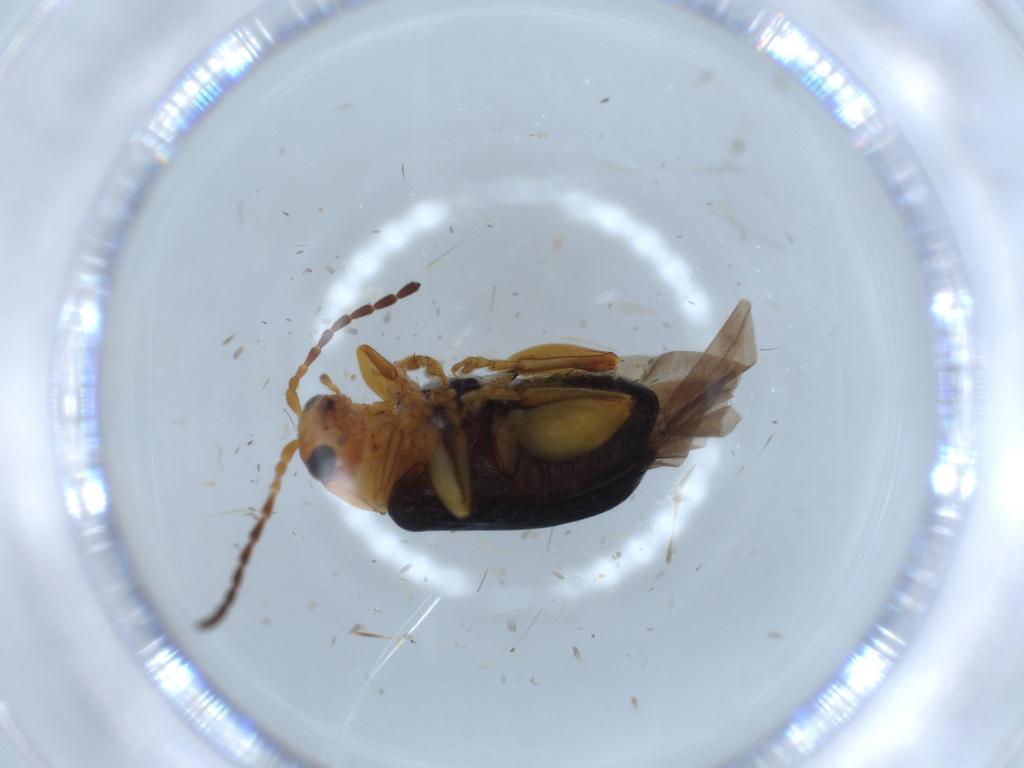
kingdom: Animalia
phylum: Arthropoda
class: Insecta
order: Coleoptera
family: Chrysomelidae
